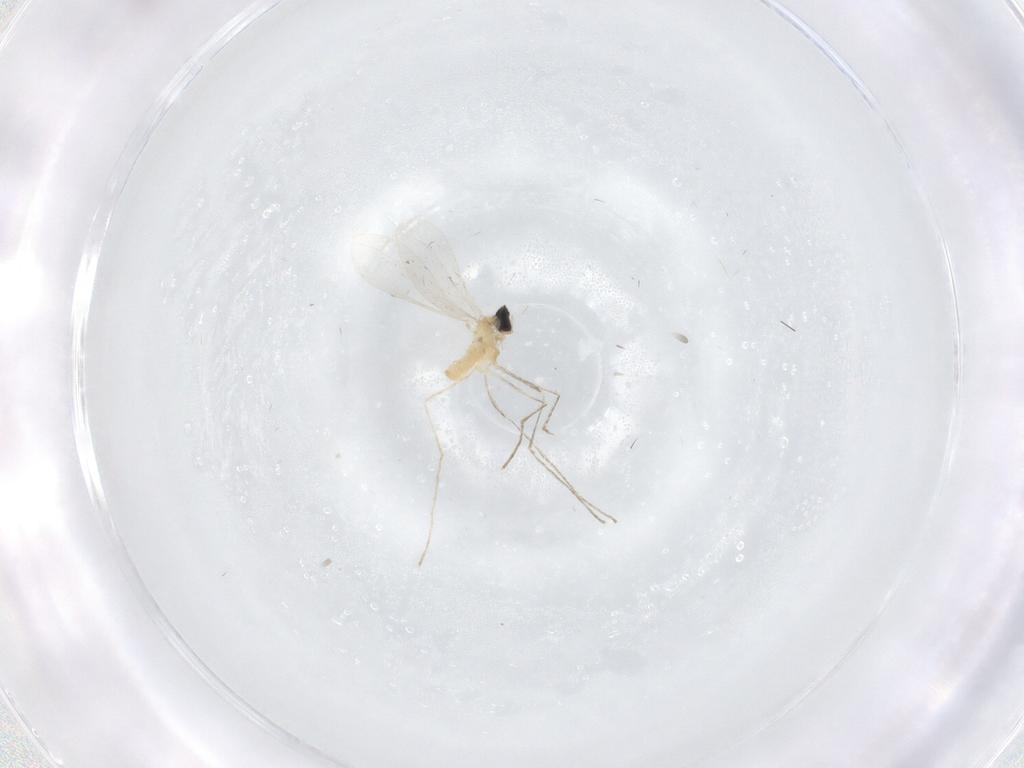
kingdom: Animalia
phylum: Arthropoda
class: Insecta
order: Diptera
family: Cecidomyiidae
